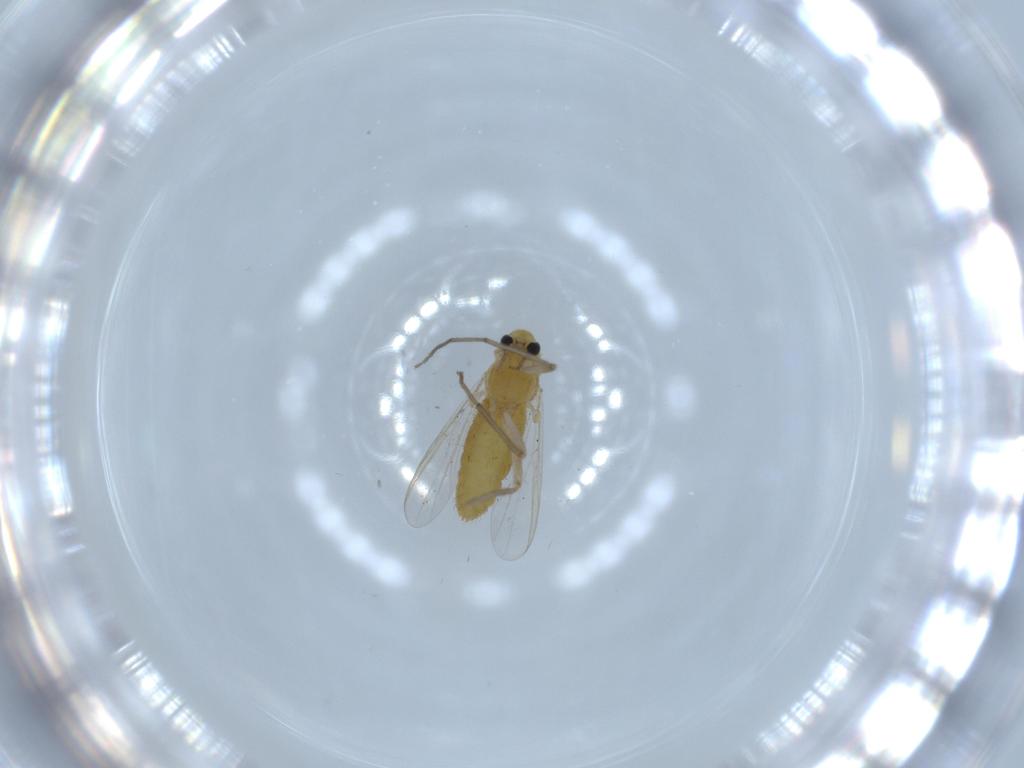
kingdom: Animalia
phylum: Arthropoda
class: Insecta
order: Diptera
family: Chironomidae
